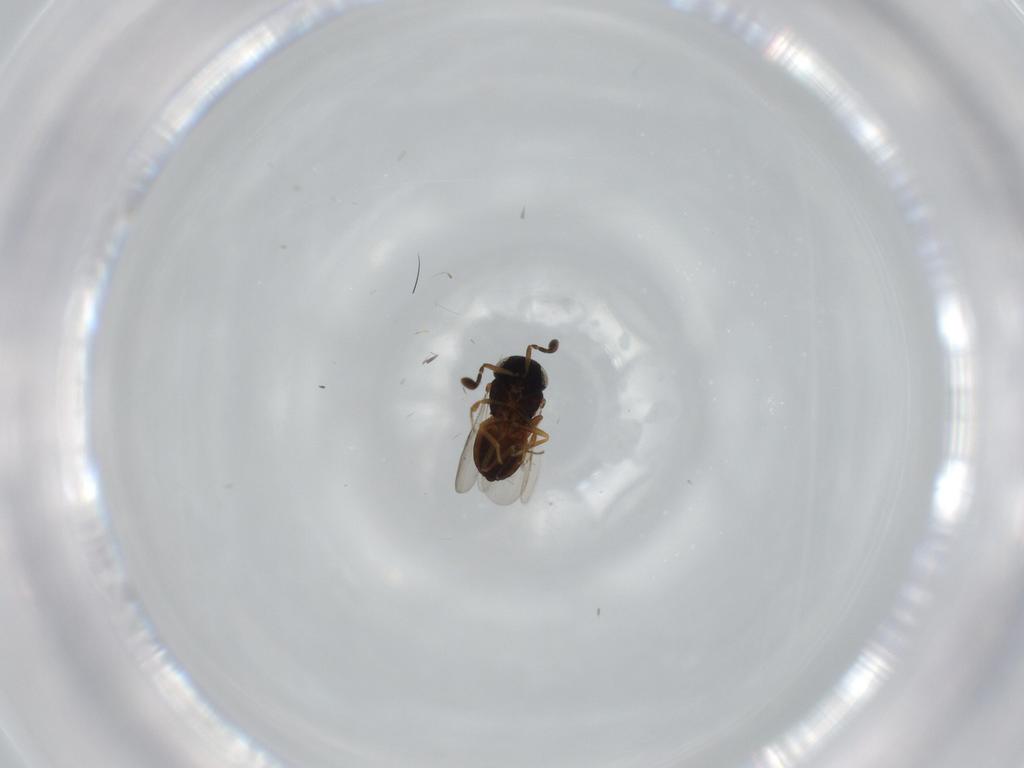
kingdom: Animalia
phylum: Arthropoda
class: Insecta
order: Coleoptera
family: Curculionidae
